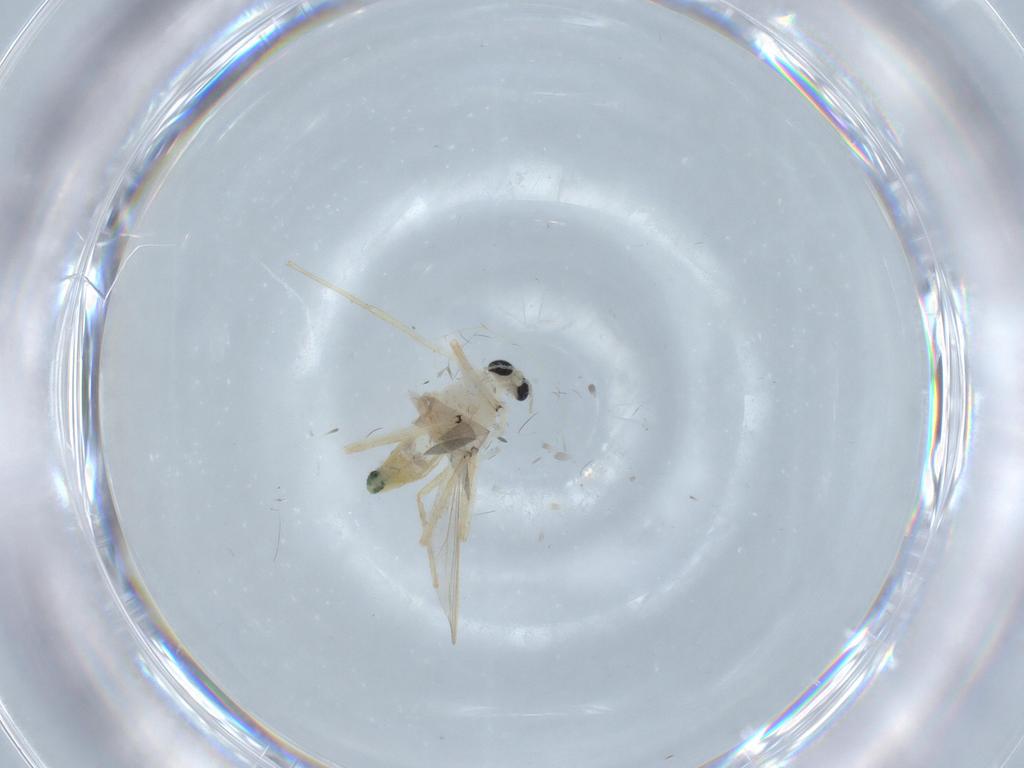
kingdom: Animalia
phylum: Arthropoda
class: Insecta
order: Diptera
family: Chironomidae
